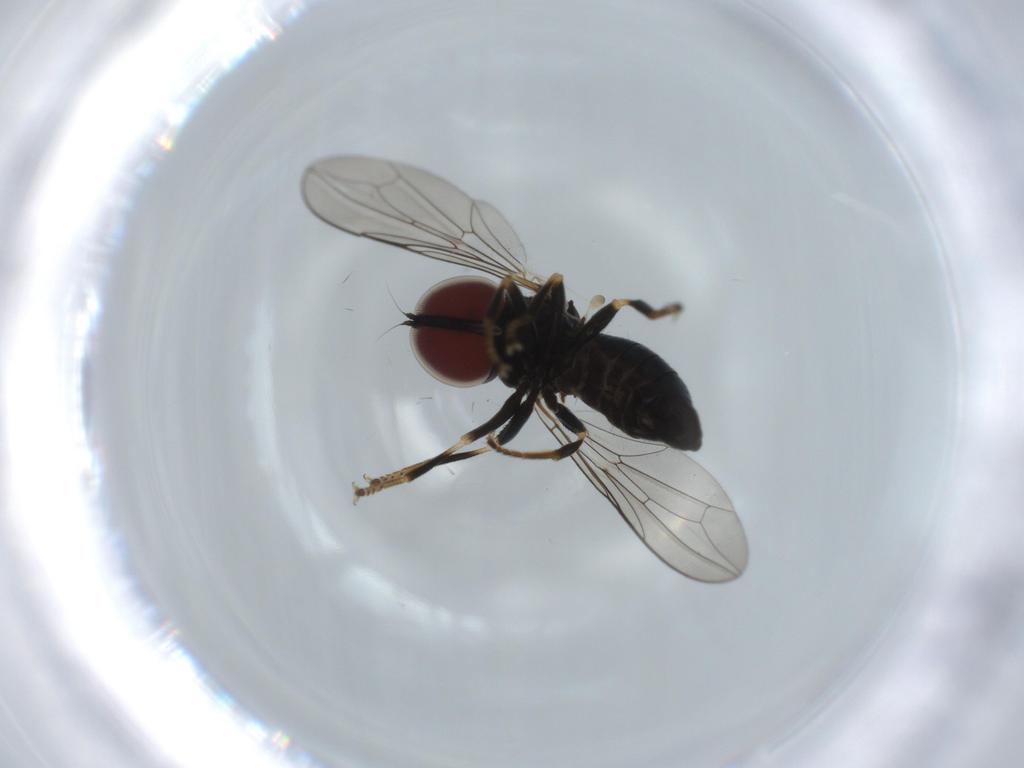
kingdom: Animalia
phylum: Arthropoda
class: Insecta
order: Diptera
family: Pipunculidae
